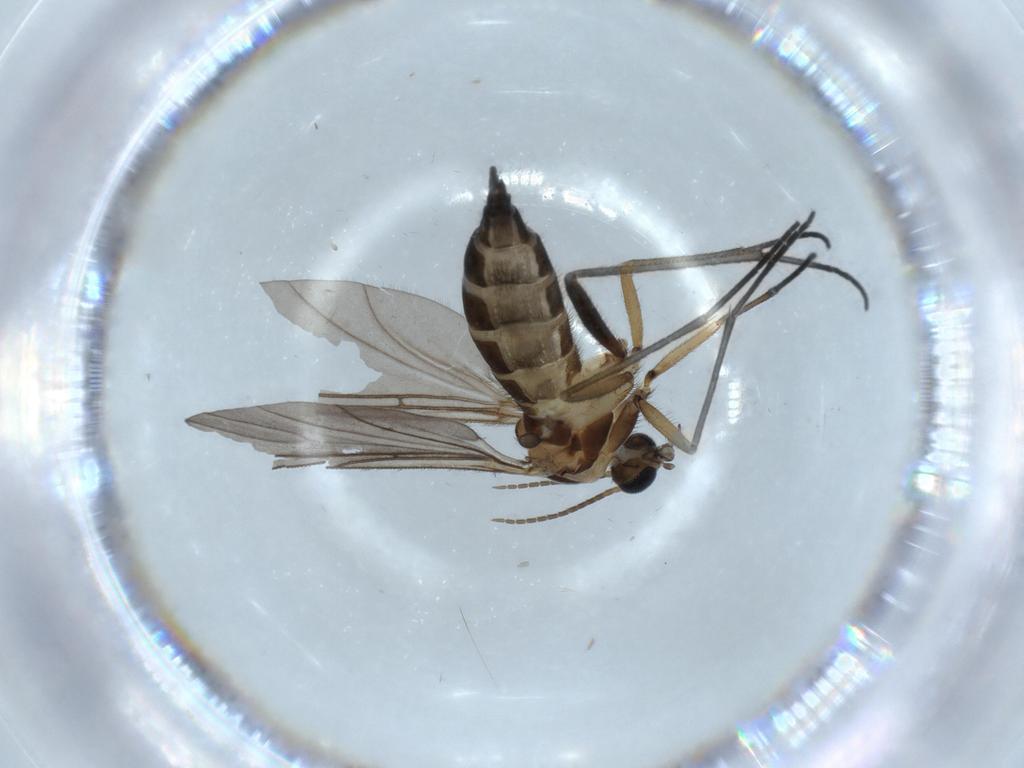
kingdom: Animalia
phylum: Arthropoda
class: Insecta
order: Diptera
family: Sciaridae
